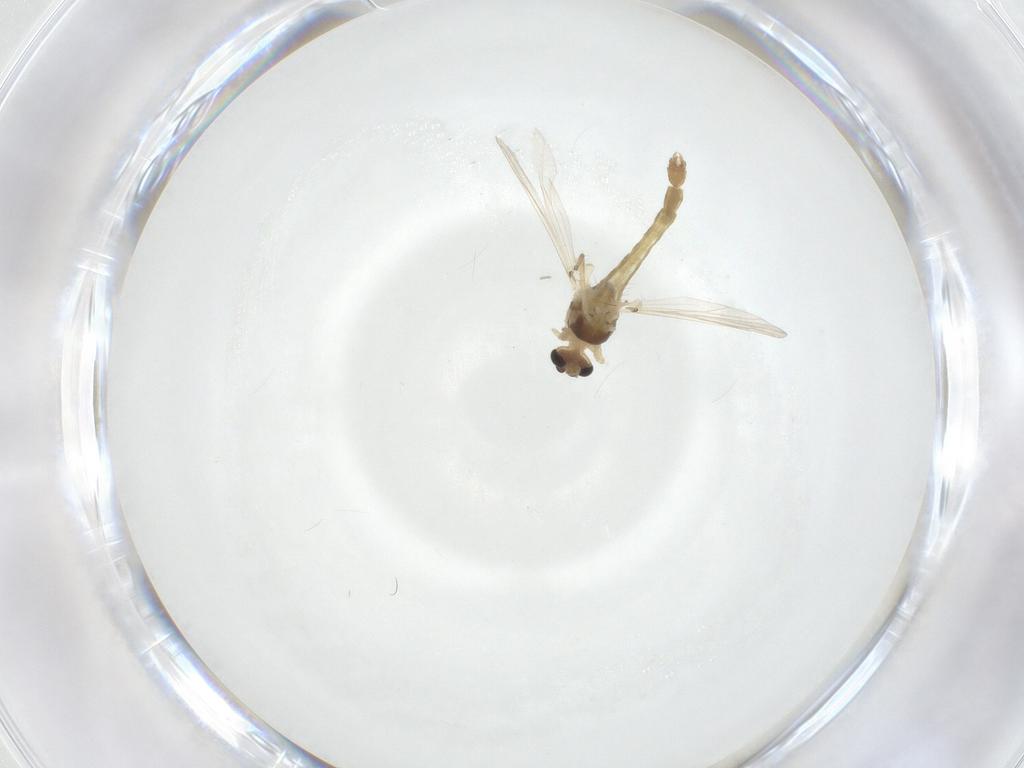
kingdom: Animalia
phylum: Arthropoda
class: Insecta
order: Diptera
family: Chironomidae
